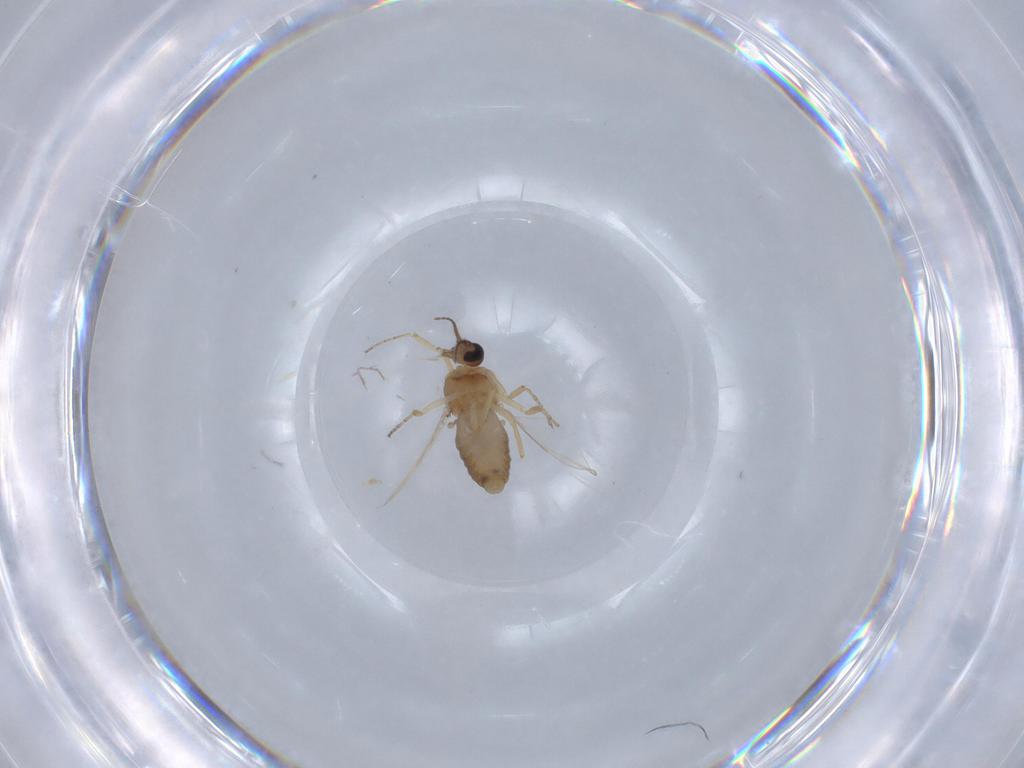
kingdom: Animalia
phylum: Arthropoda
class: Insecta
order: Diptera
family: Ceratopogonidae
